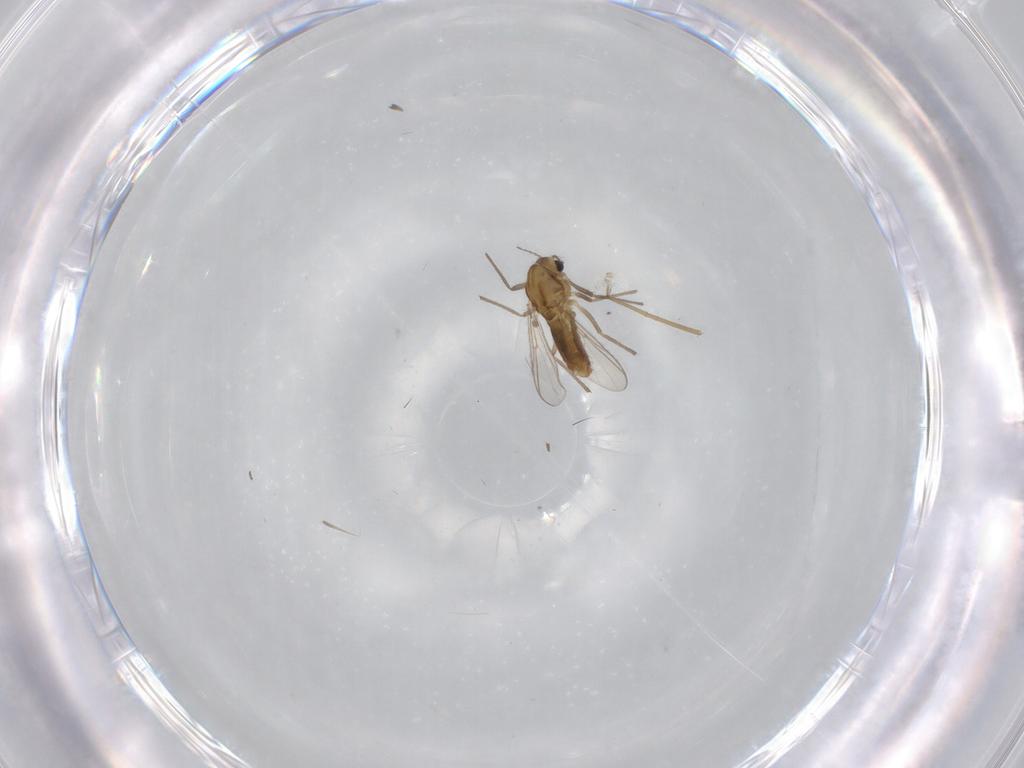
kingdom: Animalia
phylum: Arthropoda
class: Insecta
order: Diptera
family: Chironomidae
